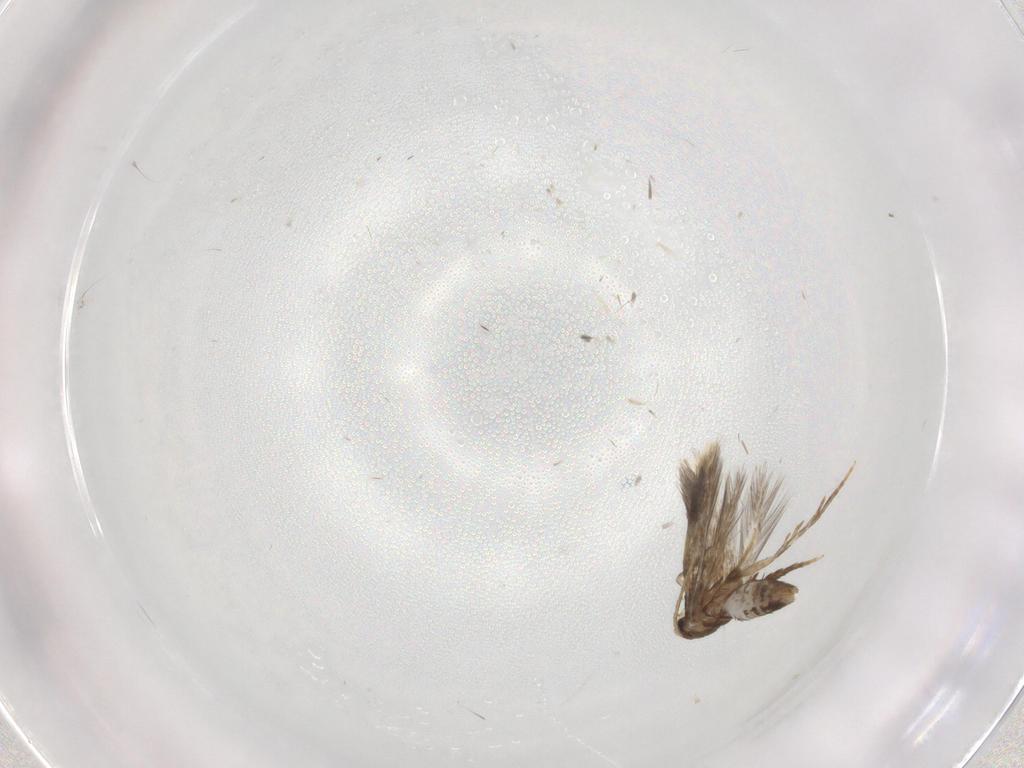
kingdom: Animalia
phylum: Arthropoda
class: Insecta
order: Lepidoptera
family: Copromorphidae
